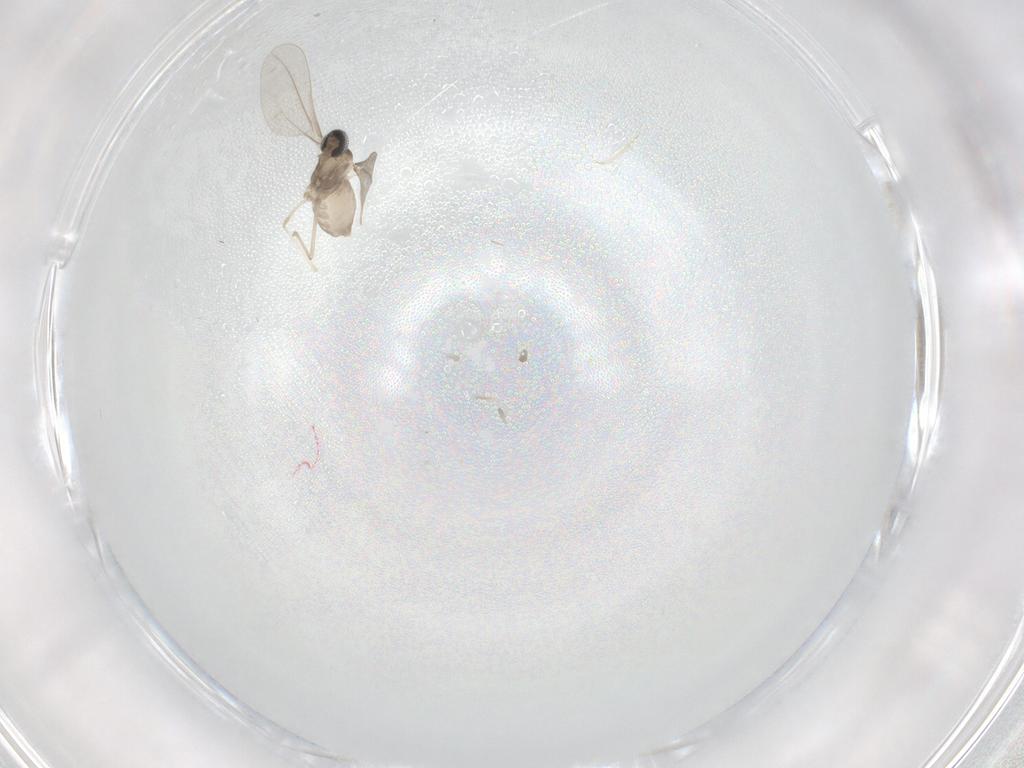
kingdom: Animalia
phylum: Arthropoda
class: Insecta
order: Diptera
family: Cecidomyiidae
